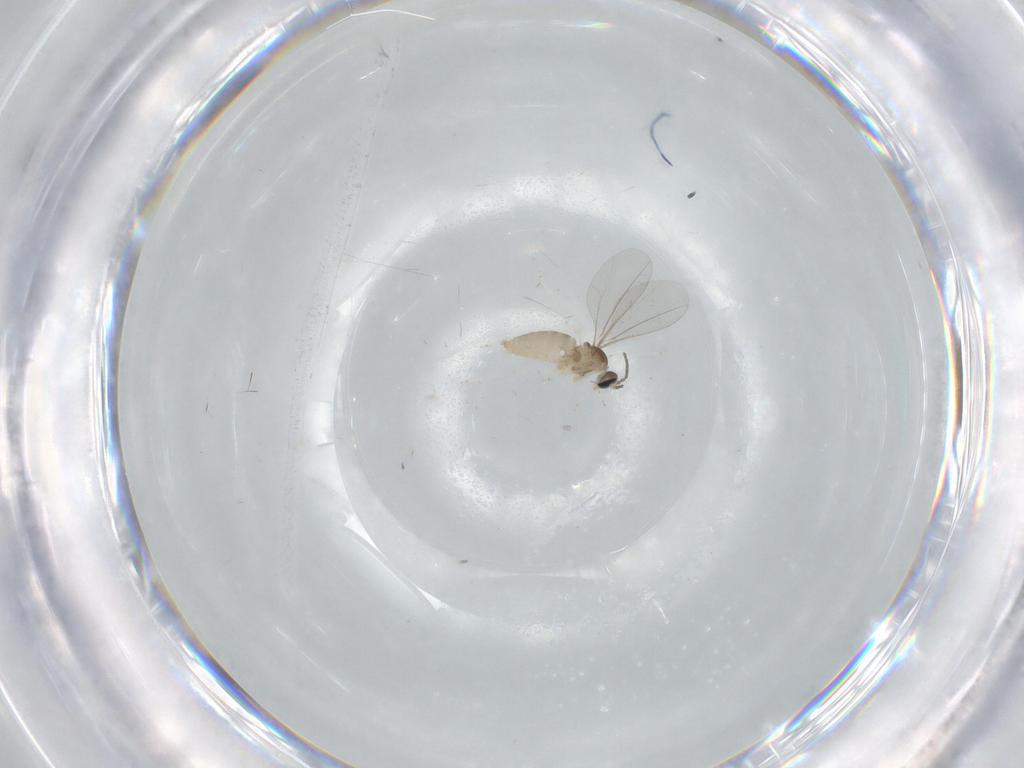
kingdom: Animalia
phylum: Arthropoda
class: Insecta
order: Diptera
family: Cecidomyiidae
